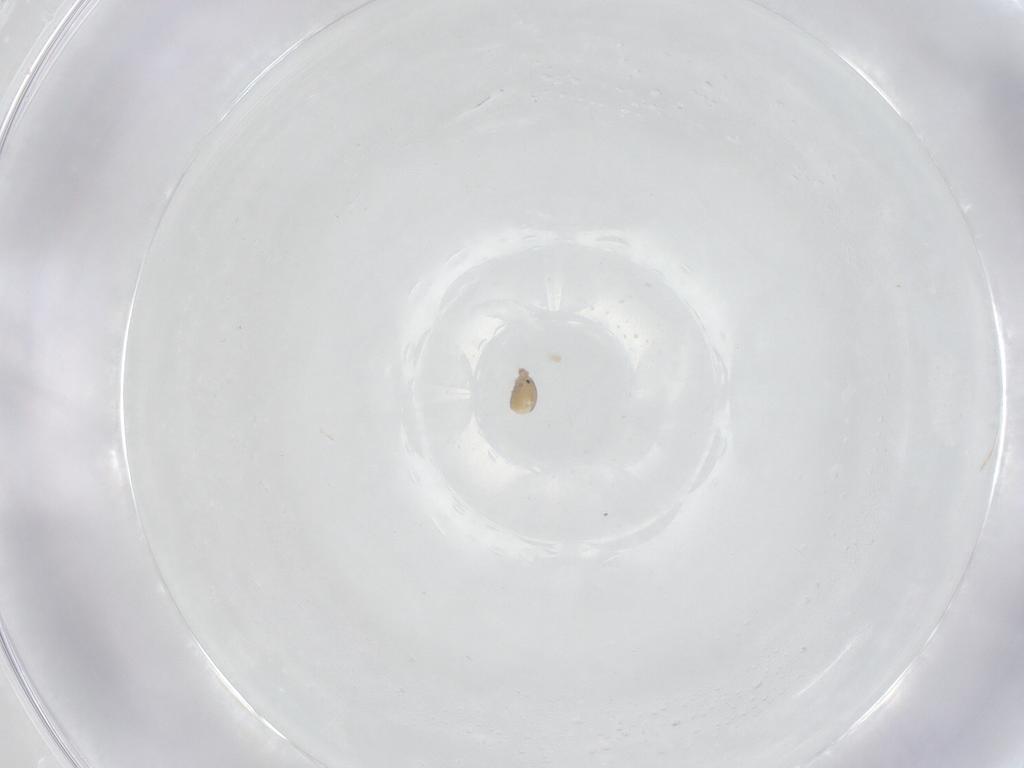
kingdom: Animalia
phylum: Arthropoda
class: Arachnida
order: Trombidiformes
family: Pionidae
